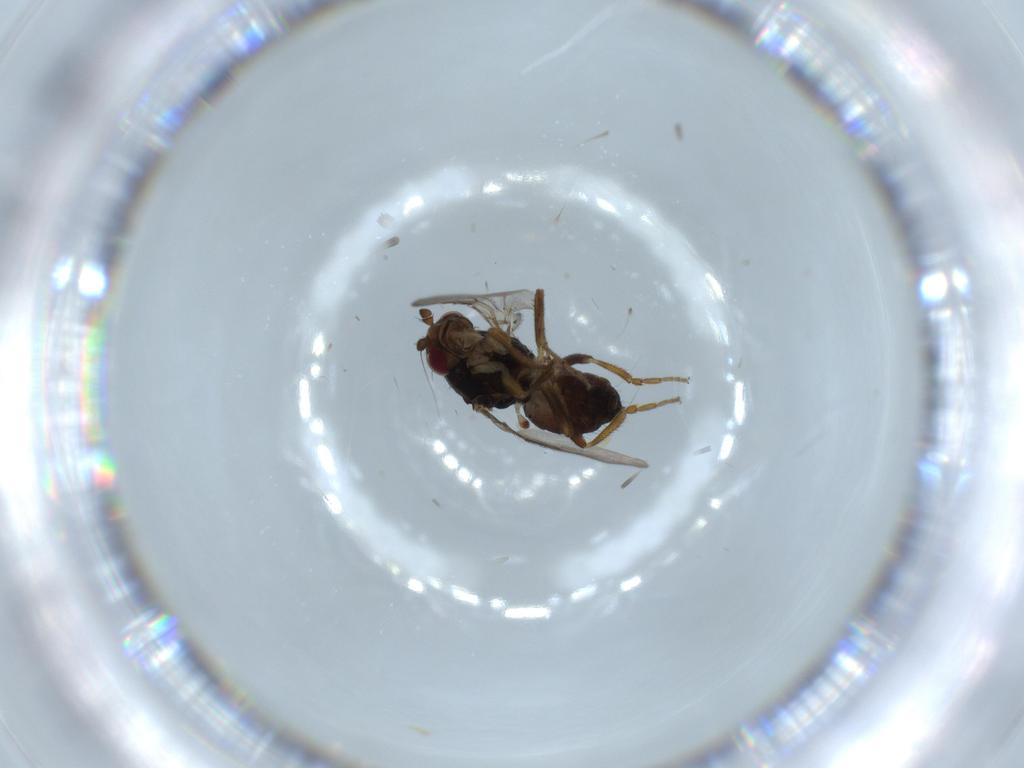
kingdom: Animalia
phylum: Arthropoda
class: Insecta
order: Diptera
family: Sphaeroceridae
